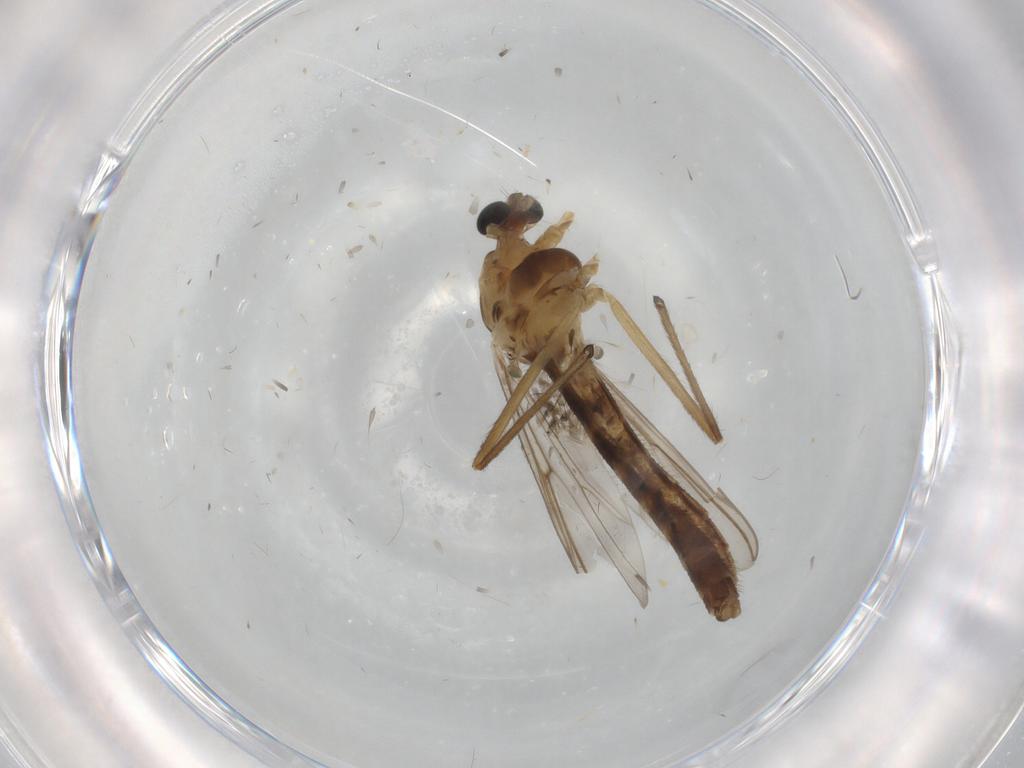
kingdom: Animalia
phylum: Arthropoda
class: Insecta
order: Diptera
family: Chironomidae
